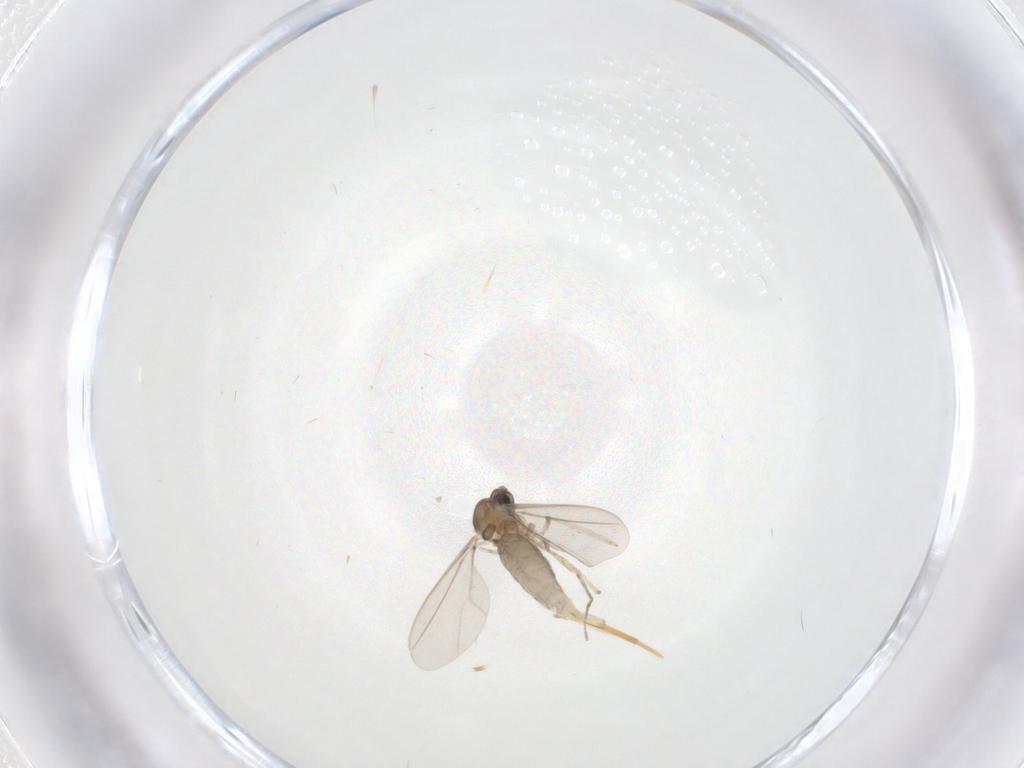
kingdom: Animalia
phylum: Arthropoda
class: Insecta
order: Diptera
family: Cecidomyiidae
